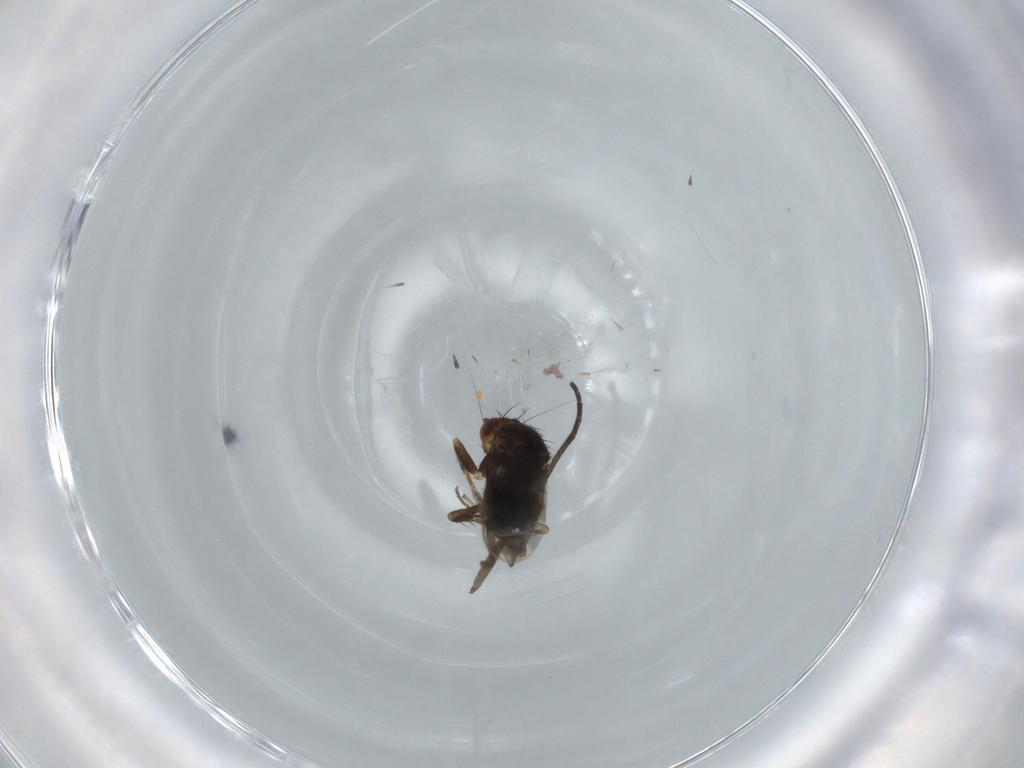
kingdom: Animalia
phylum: Arthropoda
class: Insecta
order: Diptera
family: Sphaeroceridae
